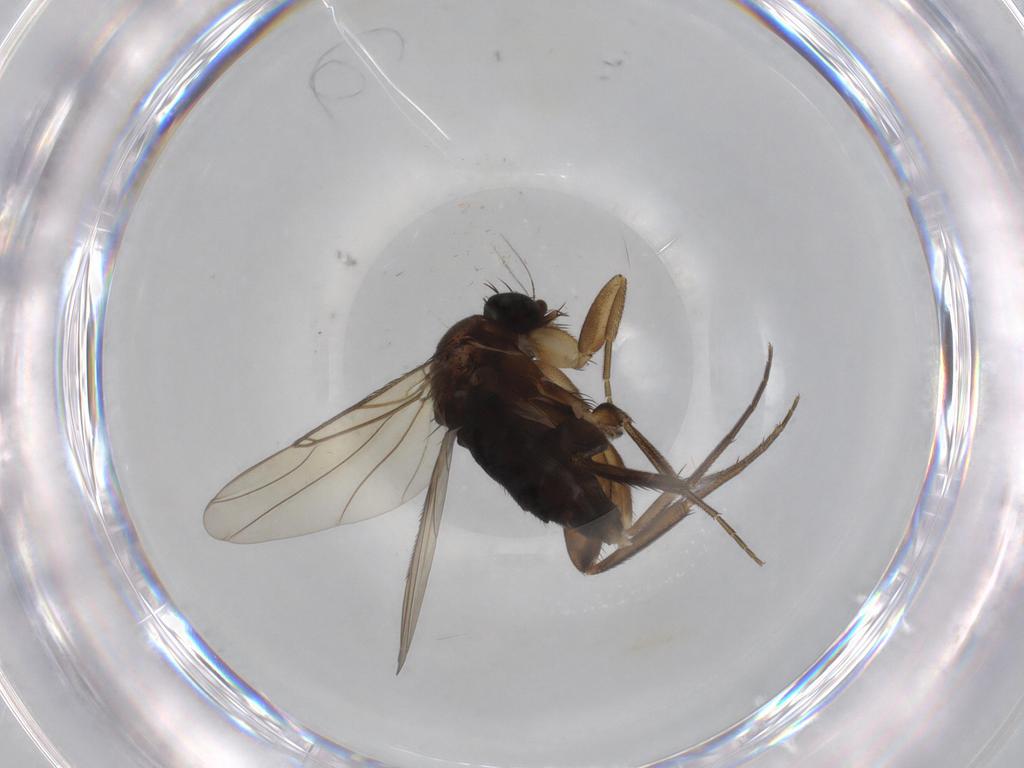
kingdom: Animalia
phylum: Arthropoda
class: Insecta
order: Diptera
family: Phoridae
